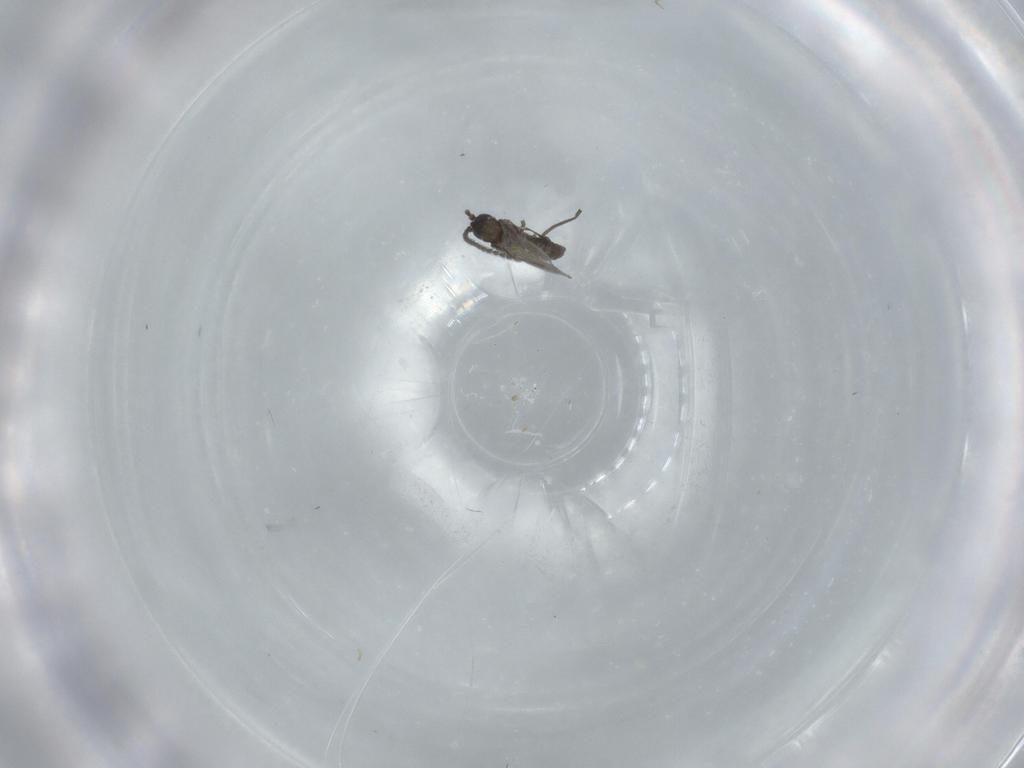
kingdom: Animalia
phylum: Arthropoda
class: Insecta
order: Diptera
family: Sciaridae
